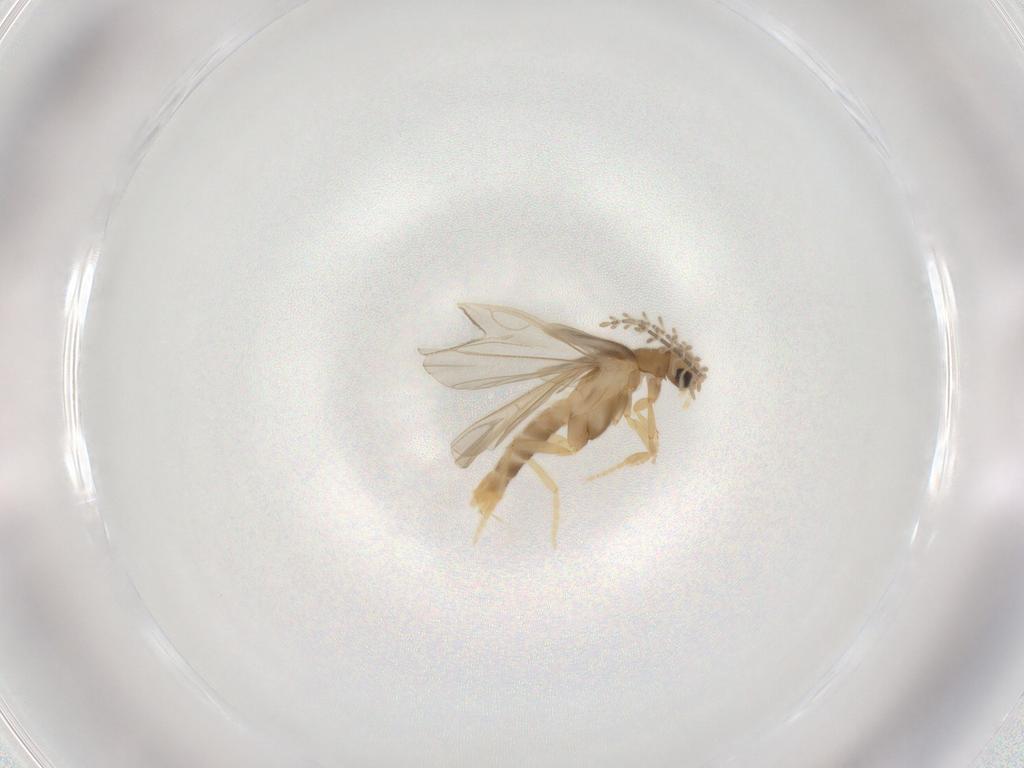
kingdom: Animalia
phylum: Arthropoda
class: Insecta
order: Coleoptera
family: Phengodidae
